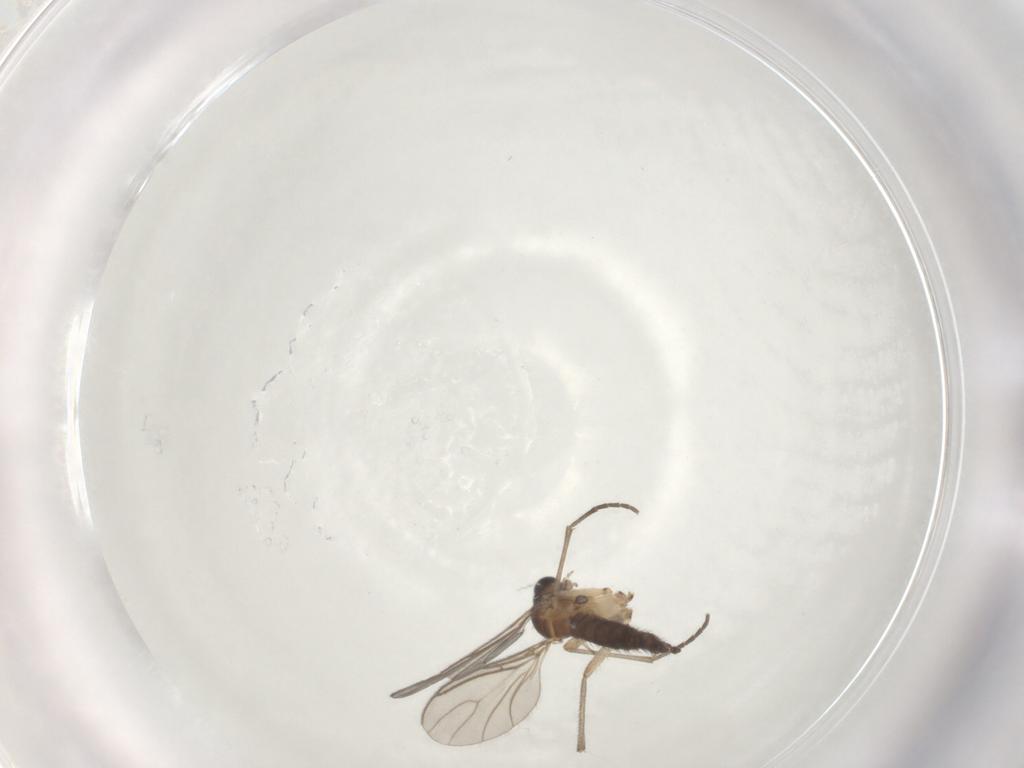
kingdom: Animalia
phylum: Arthropoda
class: Insecta
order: Diptera
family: Sciaridae
